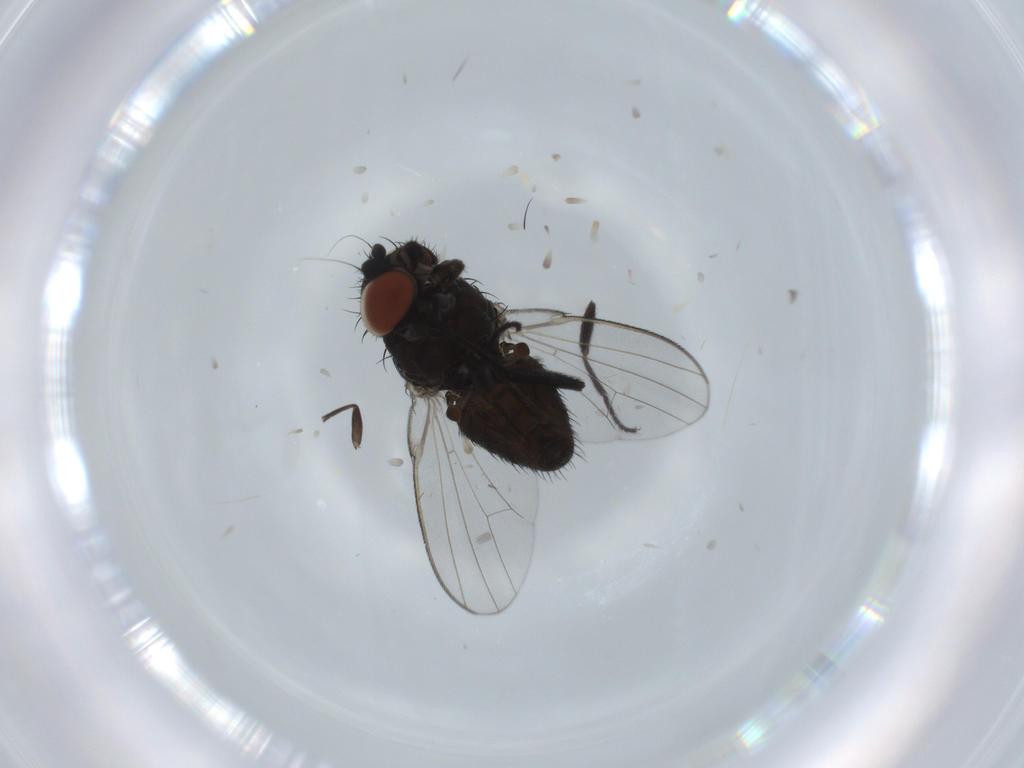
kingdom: Animalia
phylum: Arthropoda
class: Insecta
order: Diptera
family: Milichiidae
